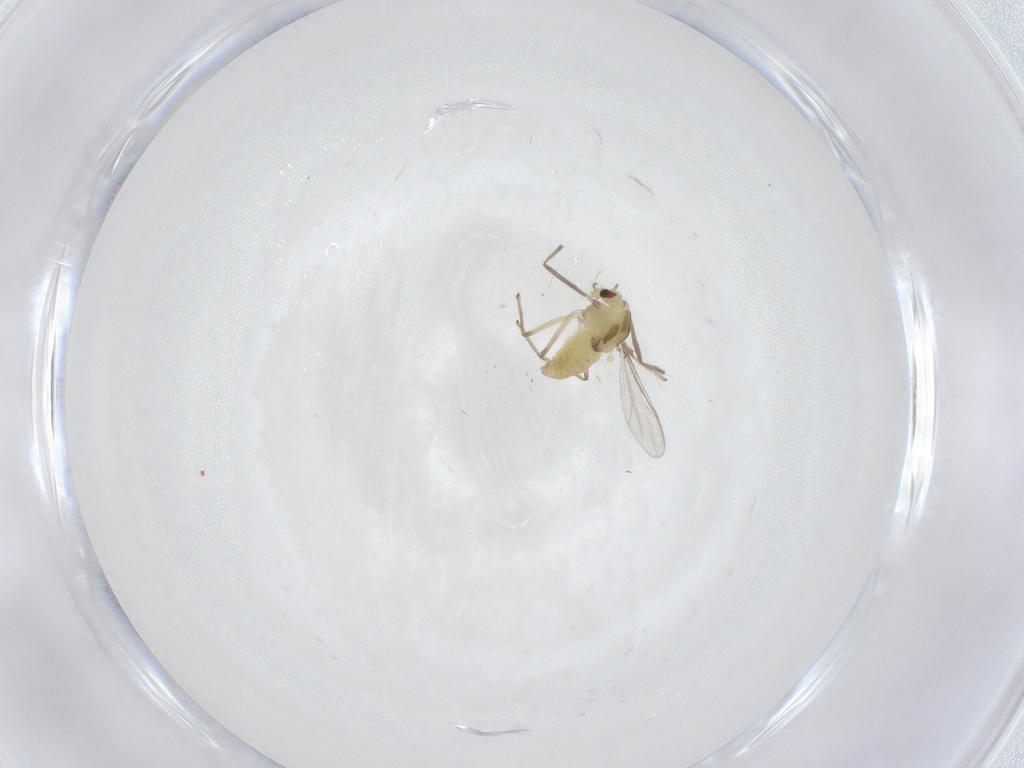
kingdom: Animalia
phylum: Arthropoda
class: Insecta
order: Diptera
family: Chironomidae
